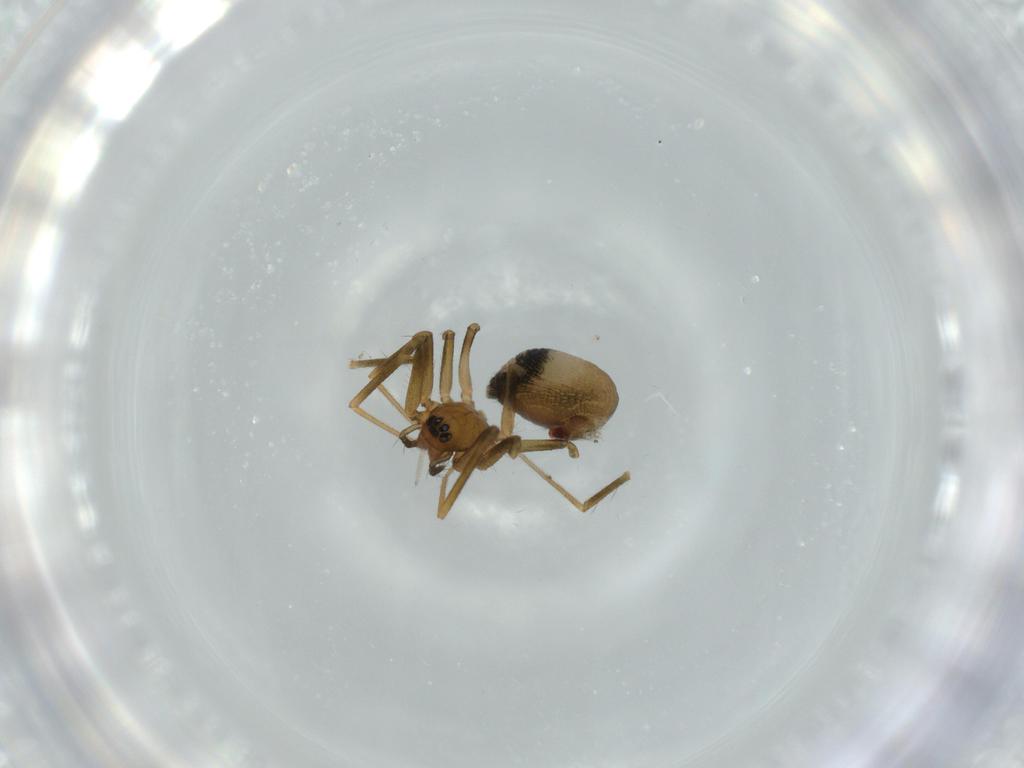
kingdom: Animalia
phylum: Arthropoda
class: Arachnida
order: Araneae
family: Linyphiidae
